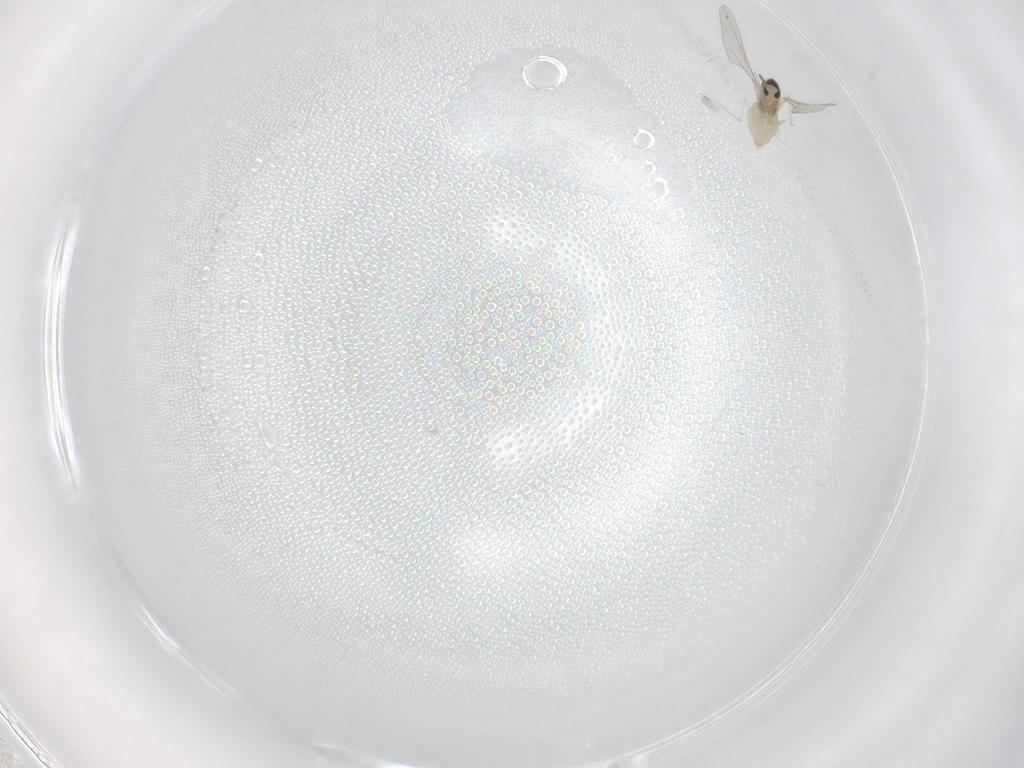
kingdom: Animalia
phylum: Arthropoda
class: Insecta
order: Diptera
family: Cecidomyiidae
